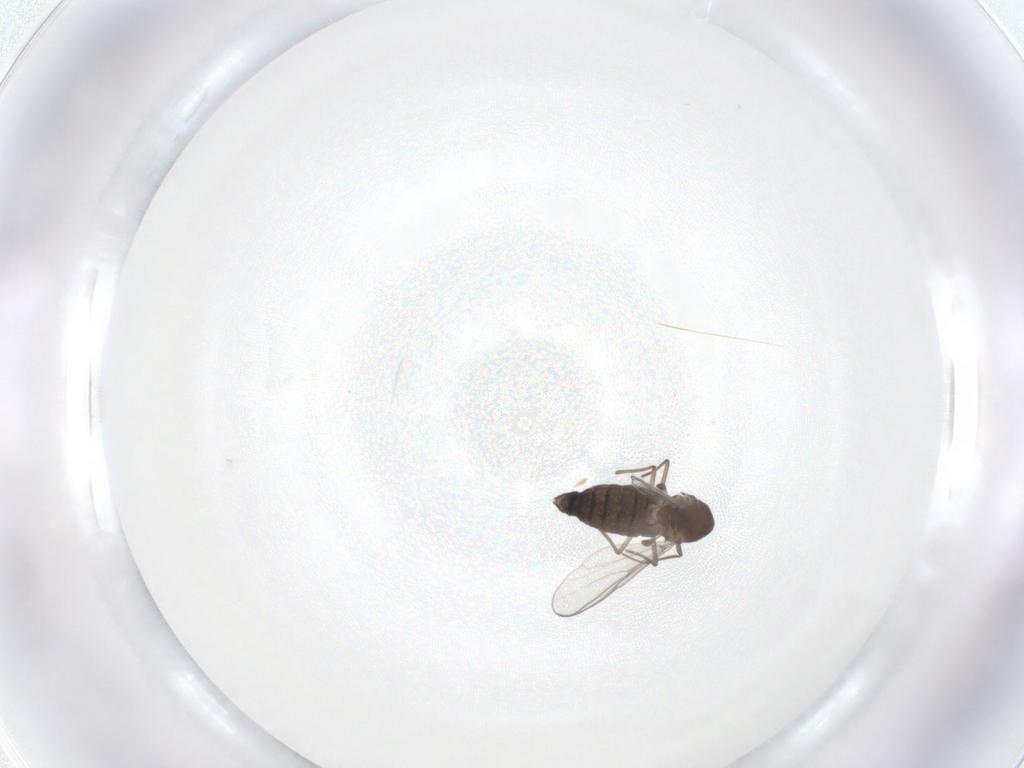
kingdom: Animalia
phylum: Arthropoda
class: Insecta
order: Diptera
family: Chironomidae
